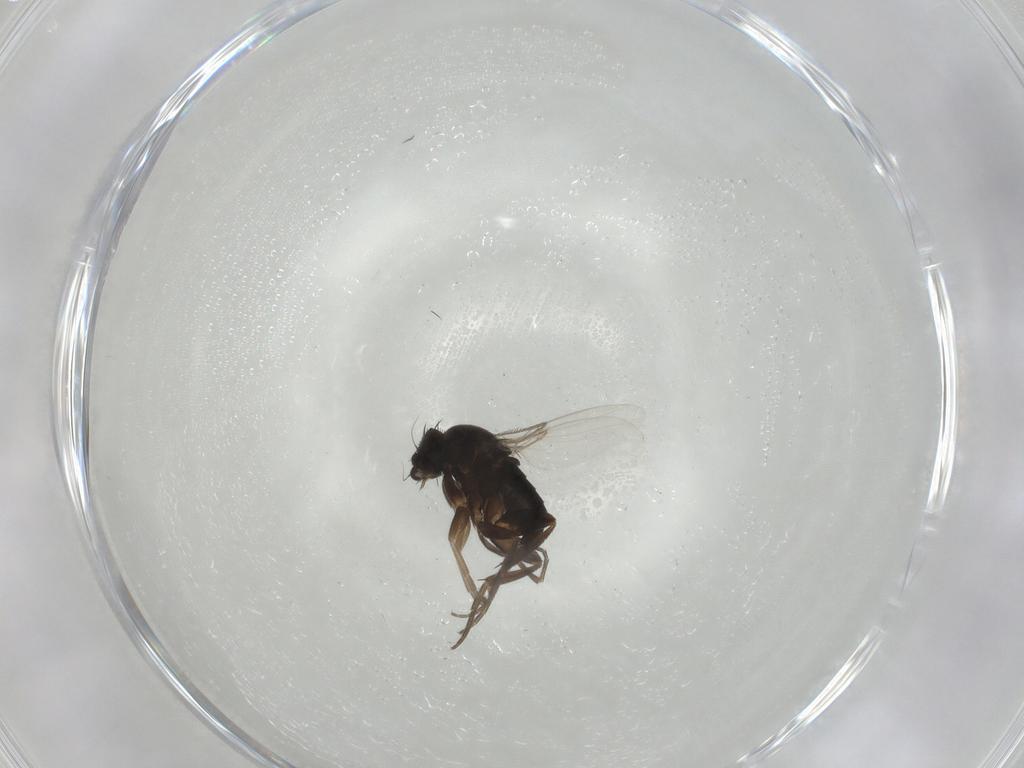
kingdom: Animalia
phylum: Arthropoda
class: Insecta
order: Diptera
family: Phoridae
